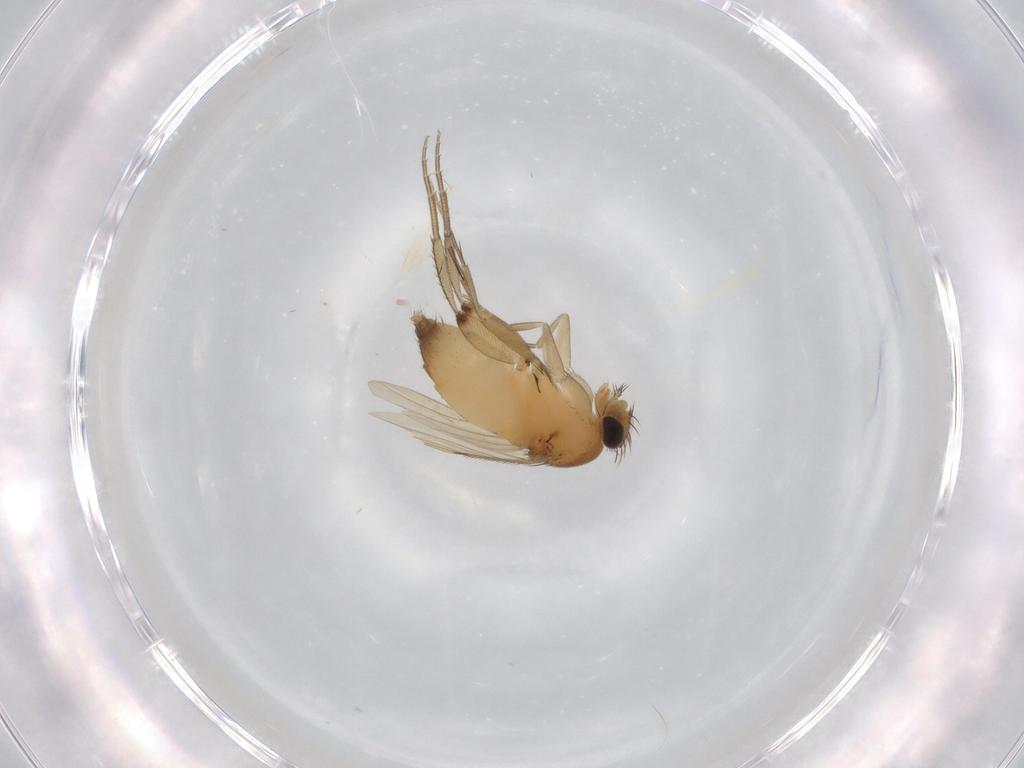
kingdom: Animalia
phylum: Arthropoda
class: Insecta
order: Diptera
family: Phoridae
